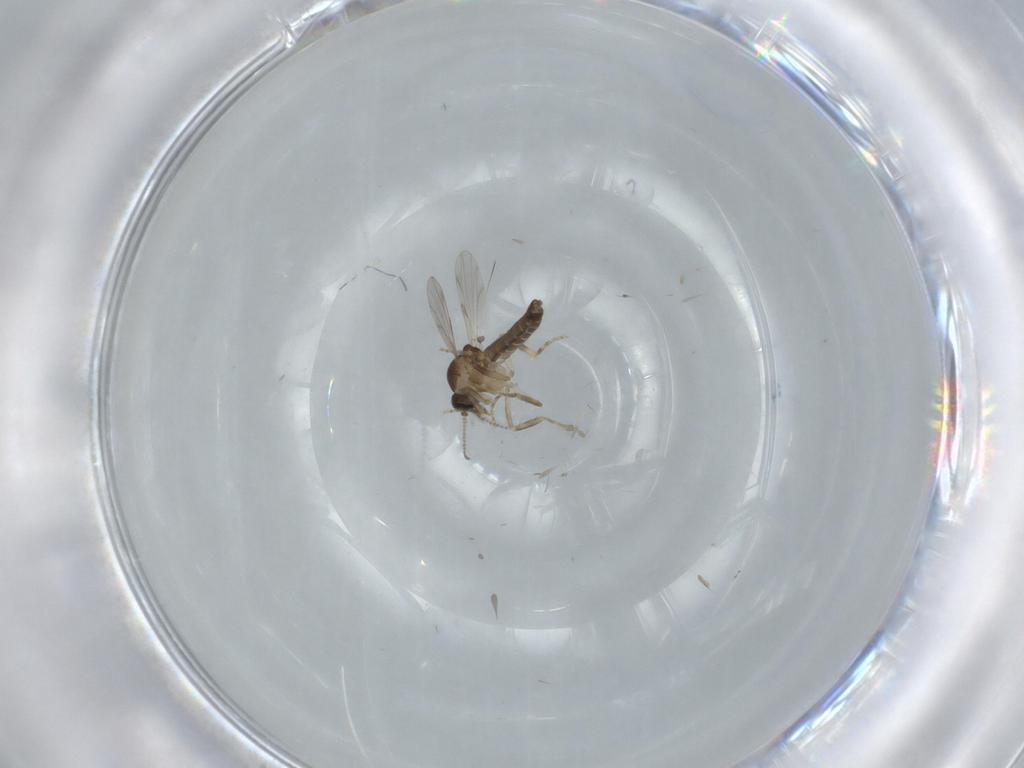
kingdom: Animalia
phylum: Arthropoda
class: Insecta
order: Diptera
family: Ceratopogonidae
